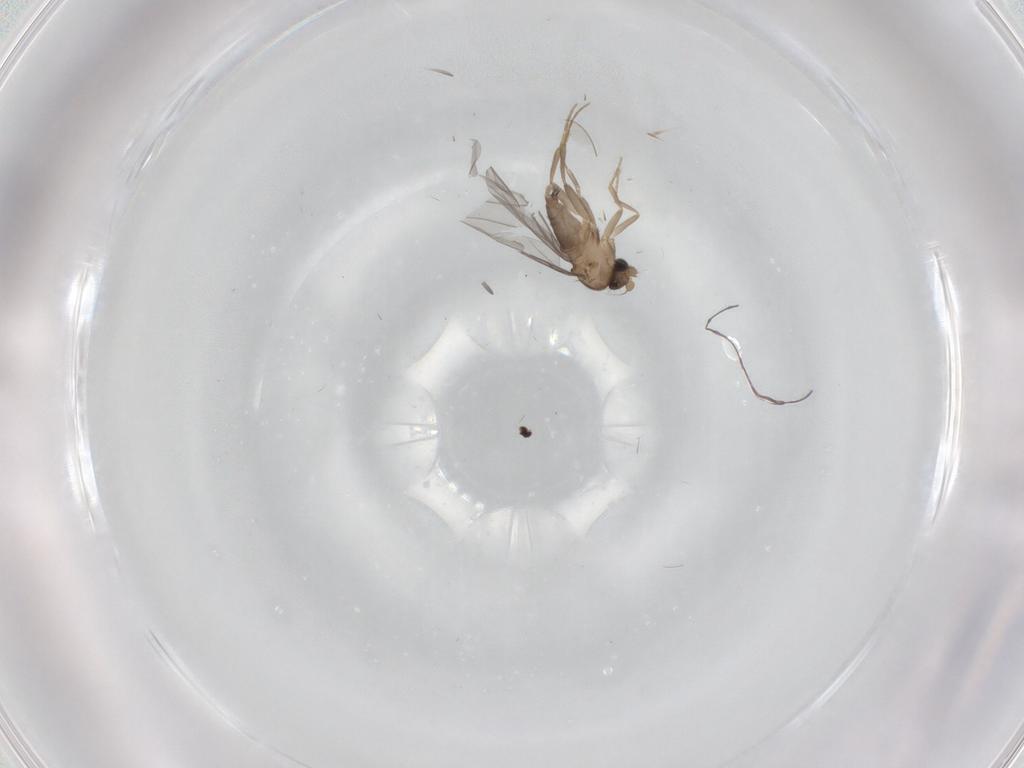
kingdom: Animalia
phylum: Arthropoda
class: Insecta
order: Diptera
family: Phoridae
